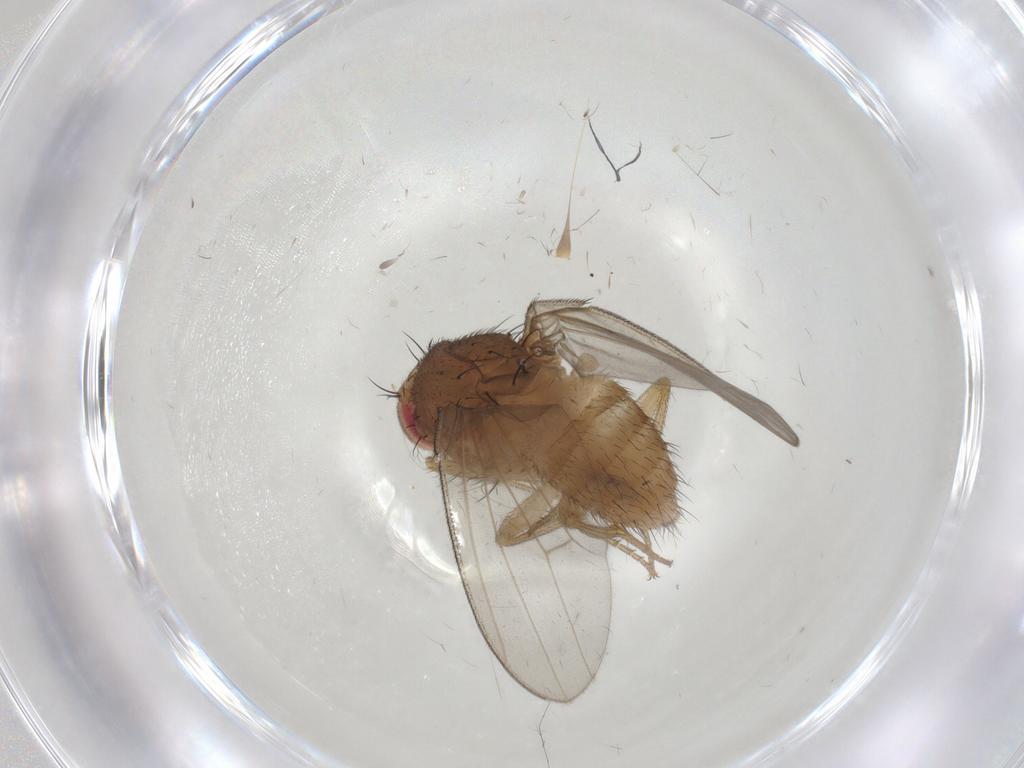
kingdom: Animalia
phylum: Arthropoda
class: Insecta
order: Diptera
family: Drosophilidae
